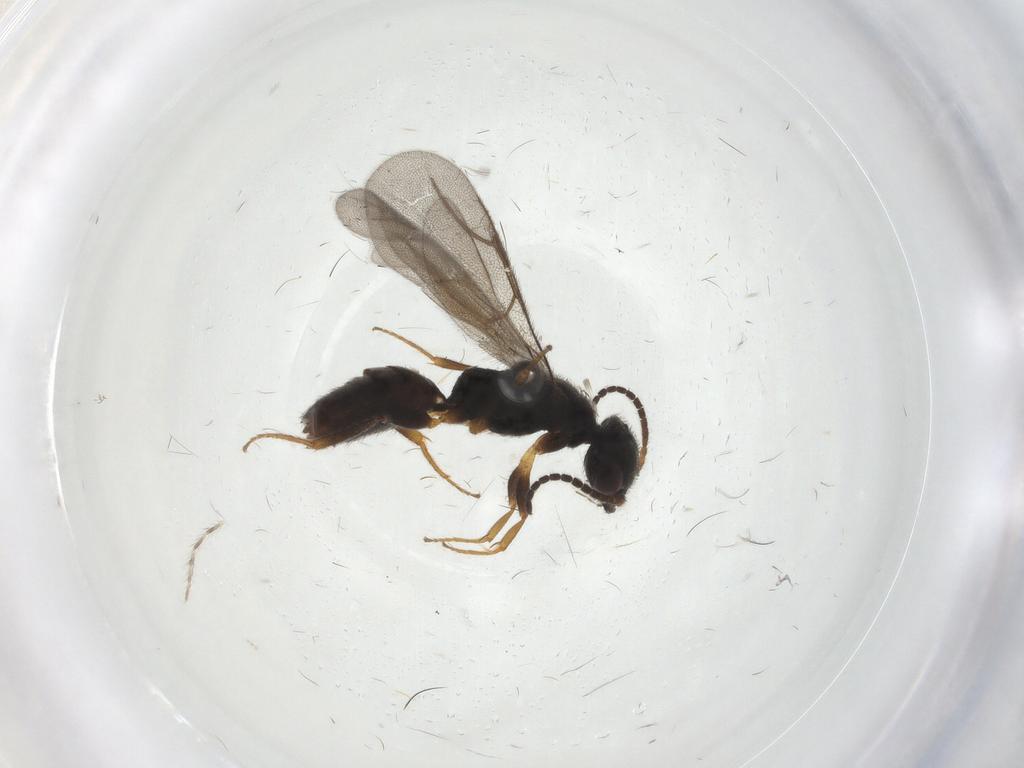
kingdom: Animalia
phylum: Arthropoda
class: Insecta
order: Hymenoptera
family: Bethylidae
